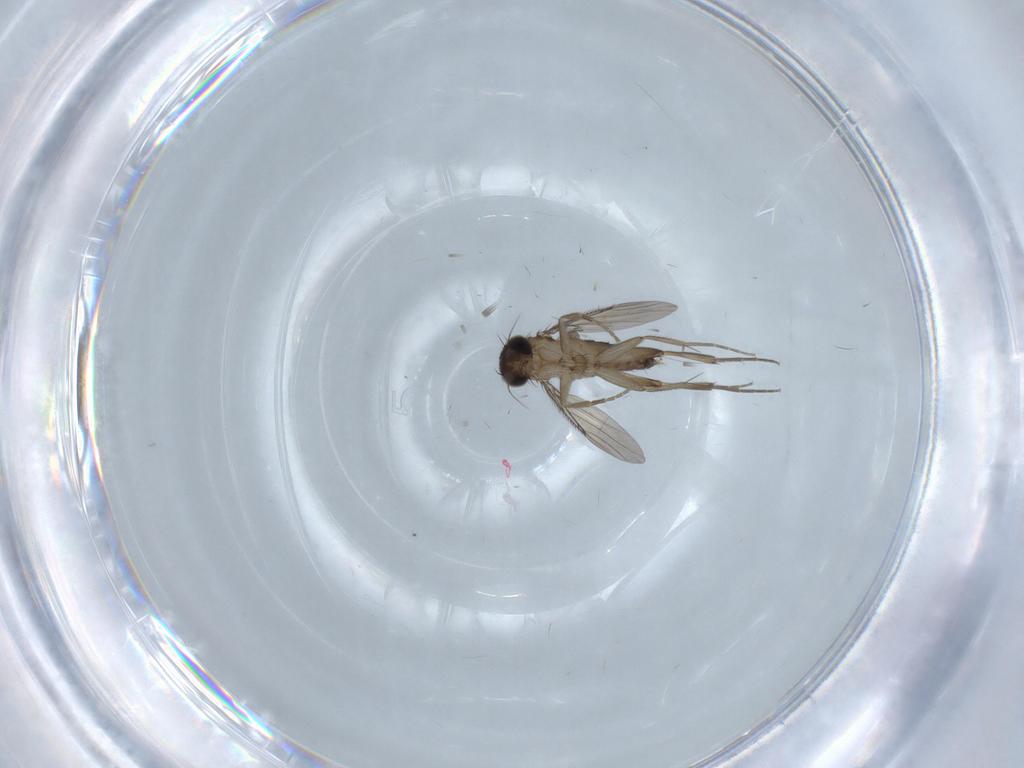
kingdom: Animalia
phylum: Arthropoda
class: Insecta
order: Diptera
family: Phoridae
